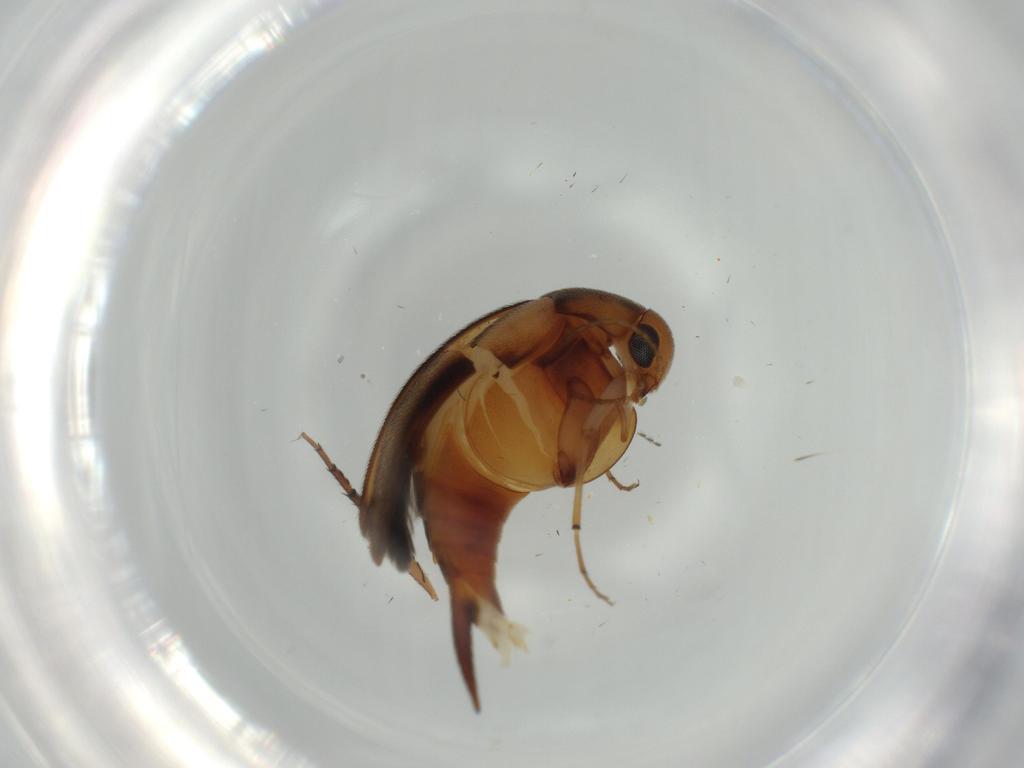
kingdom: Animalia
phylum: Arthropoda
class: Insecta
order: Coleoptera
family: Mordellidae
